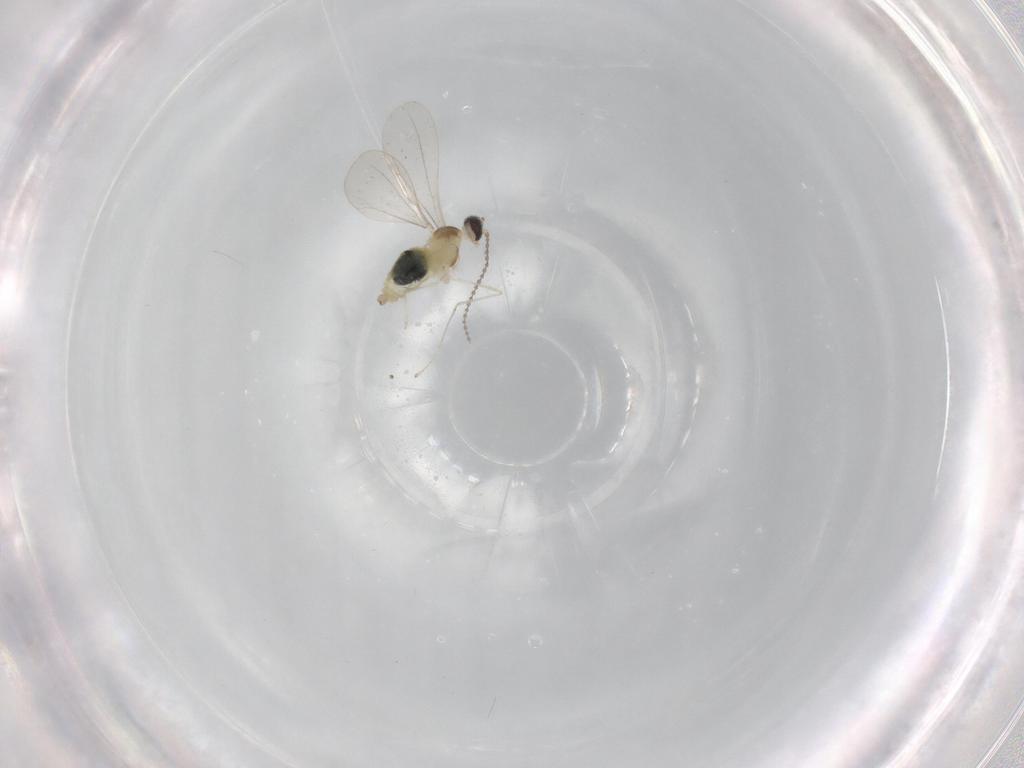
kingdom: Animalia
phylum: Arthropoda
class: Insecta
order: Diptera
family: Cecidomyiidae
